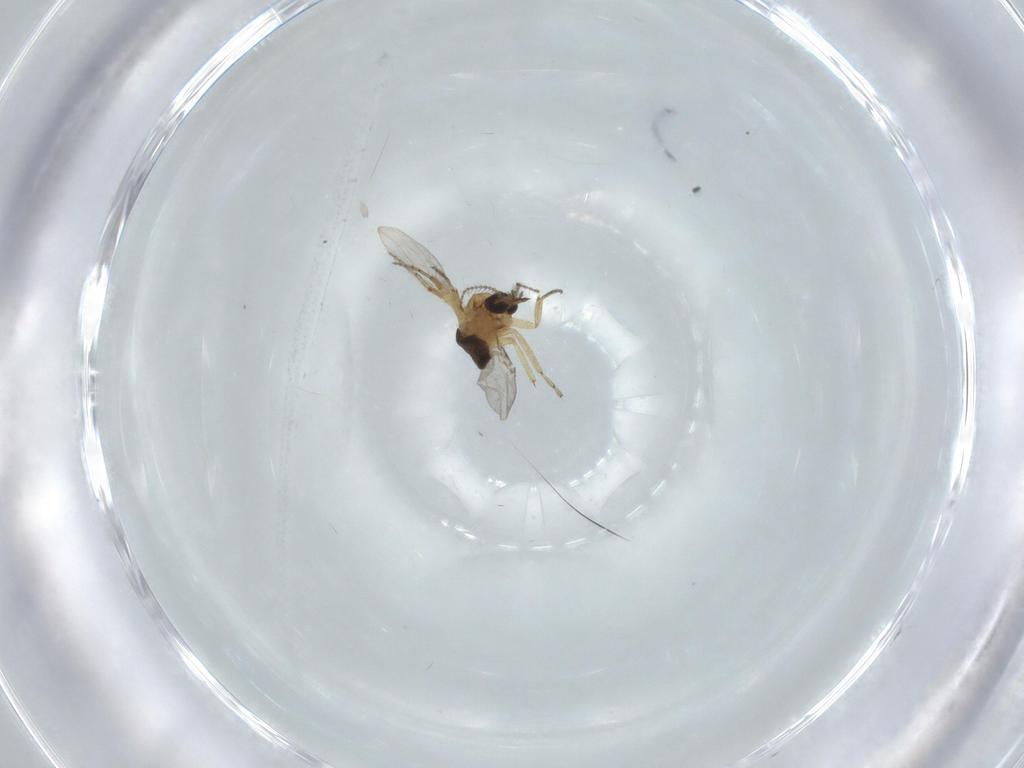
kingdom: Animalia
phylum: Arthropoda
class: Insecta
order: Diptera
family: Ceratopogonidae
